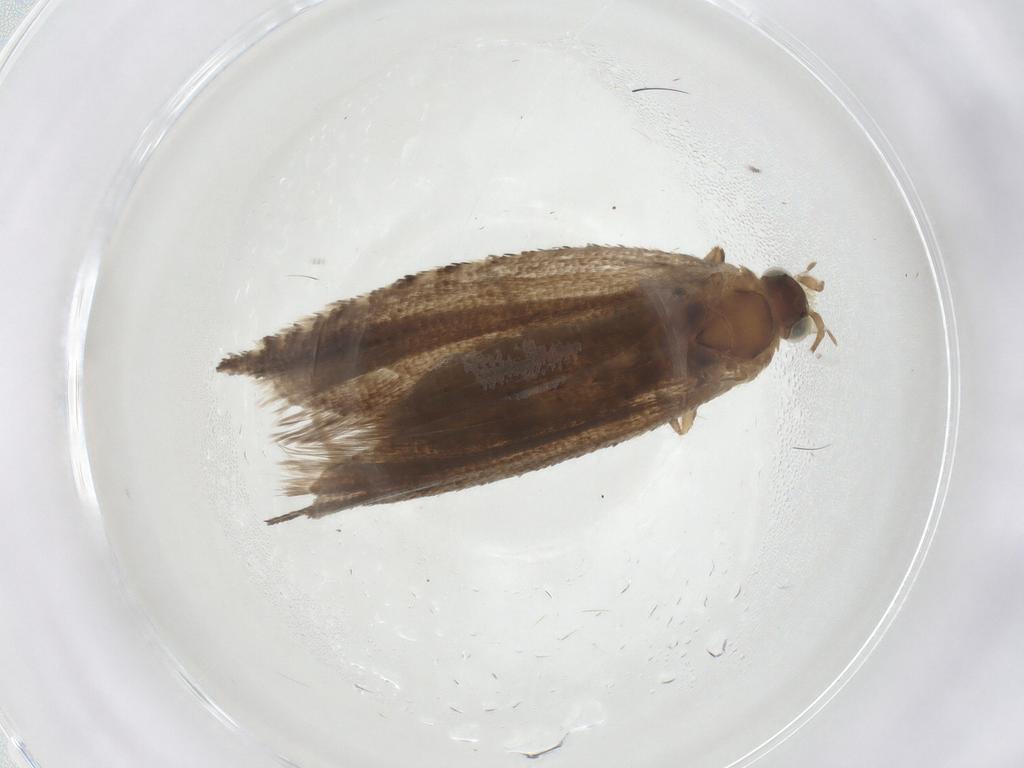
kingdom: Animalia
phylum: Arthropoda
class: Insecta
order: Lepidoptera
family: Tortricidae
